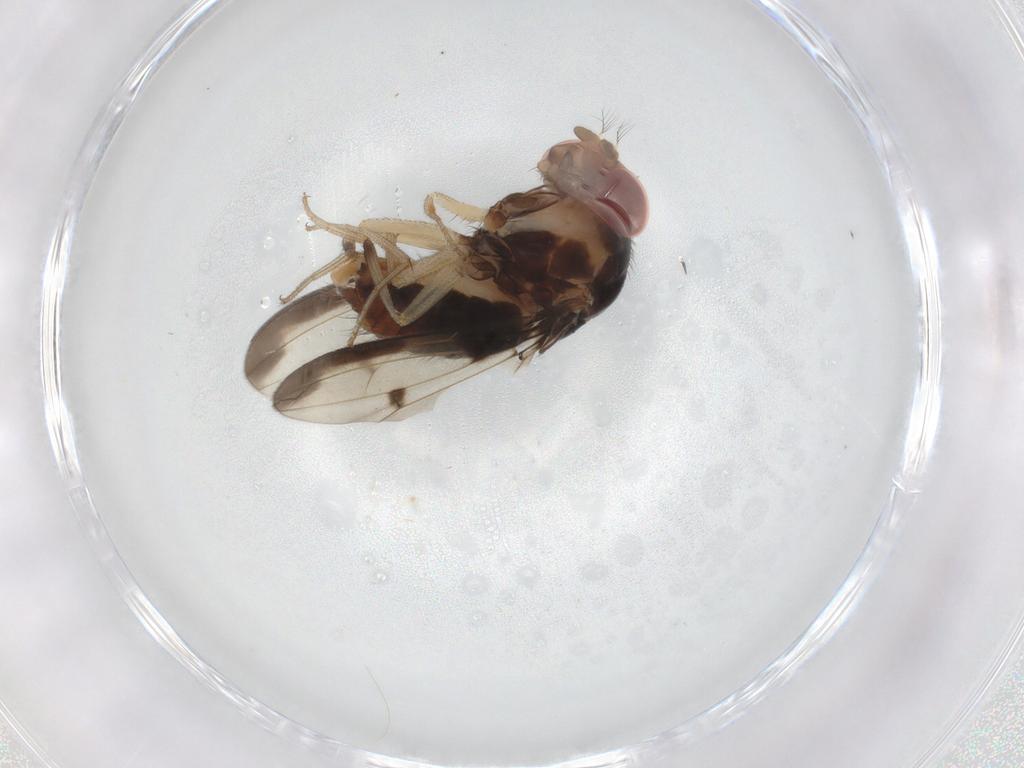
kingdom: Animalia
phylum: Arthropoda
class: Insecta
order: Diptera
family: Drosophilidae
